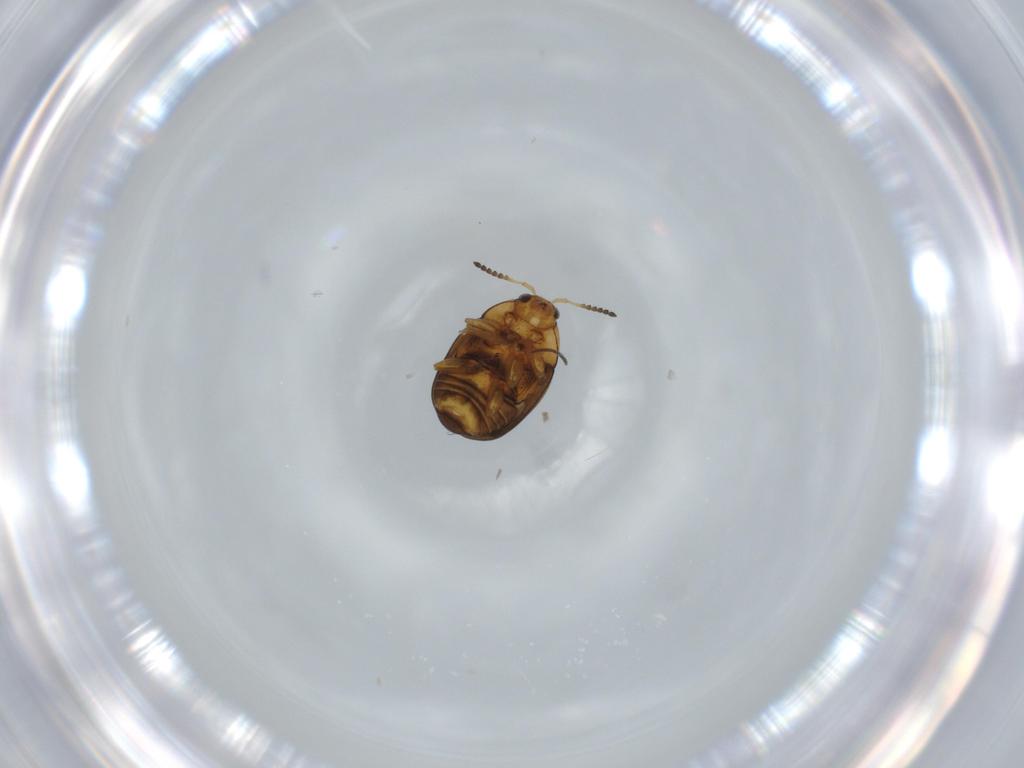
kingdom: Animalia
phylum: Arthropoda
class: Insecta
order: Coleoptera
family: Chrysomelidae
